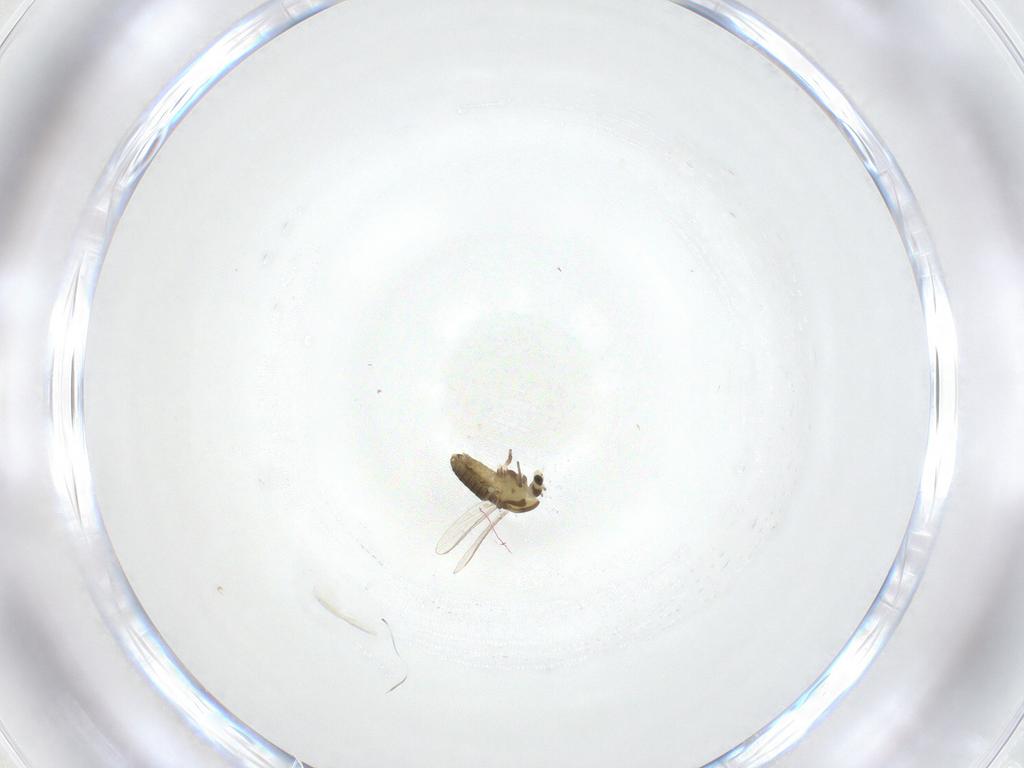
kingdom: Animalia
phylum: Arthropoda
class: Insecta
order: Diptera
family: Chironomidae
